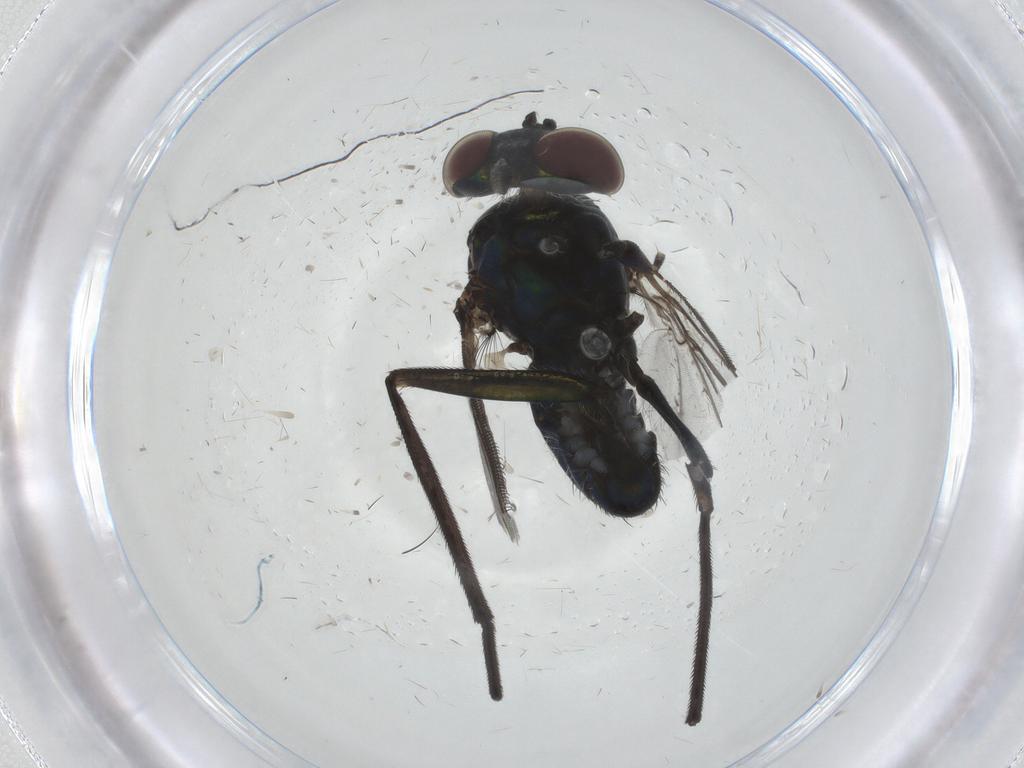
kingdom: Animalia
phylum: Arthropoda
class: Insecta
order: Diptera
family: Dolichopodidae
